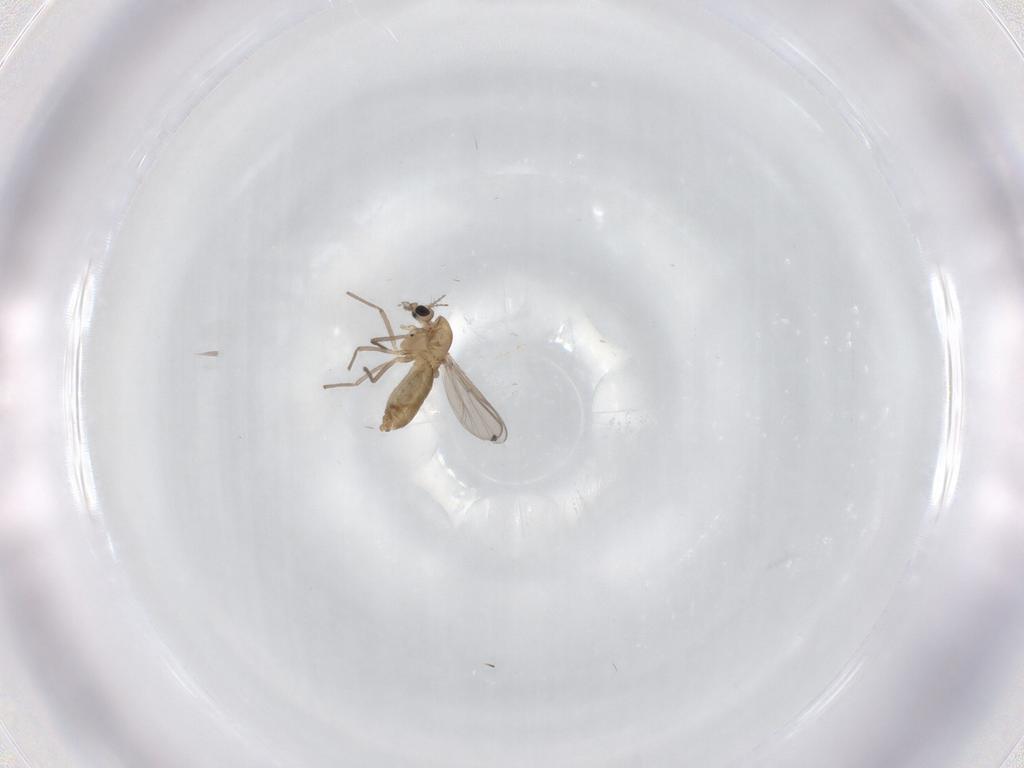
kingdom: Animalia
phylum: Arthropoda
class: Insecta
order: Diptera
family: Chironomidae
